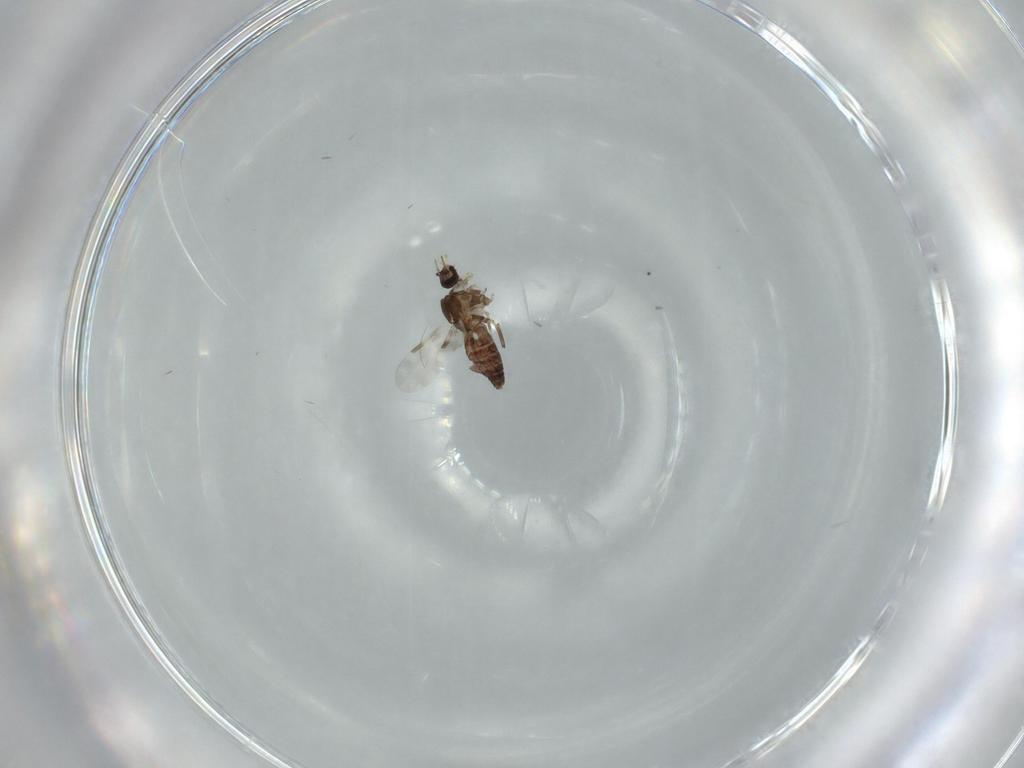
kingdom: Animalia
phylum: Arthropoda
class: Insecta
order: Diptera
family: Ceratopogonidae
